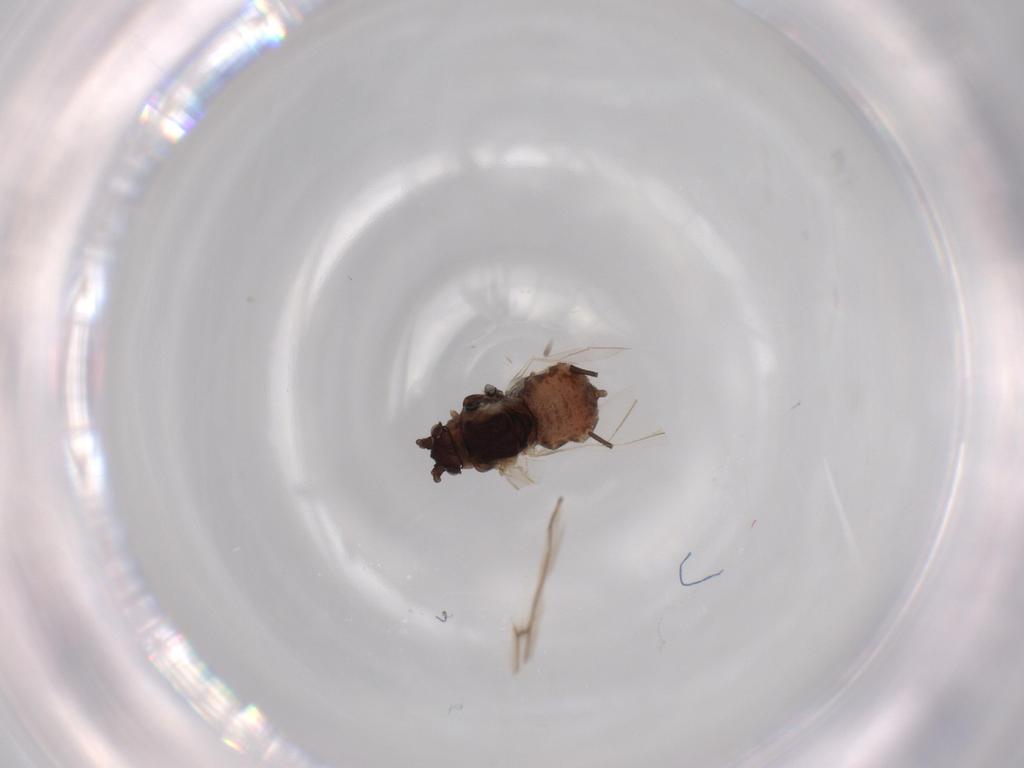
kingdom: Animalia
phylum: Arthropoda
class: Insecta
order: Hemiptera
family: Aphididae
